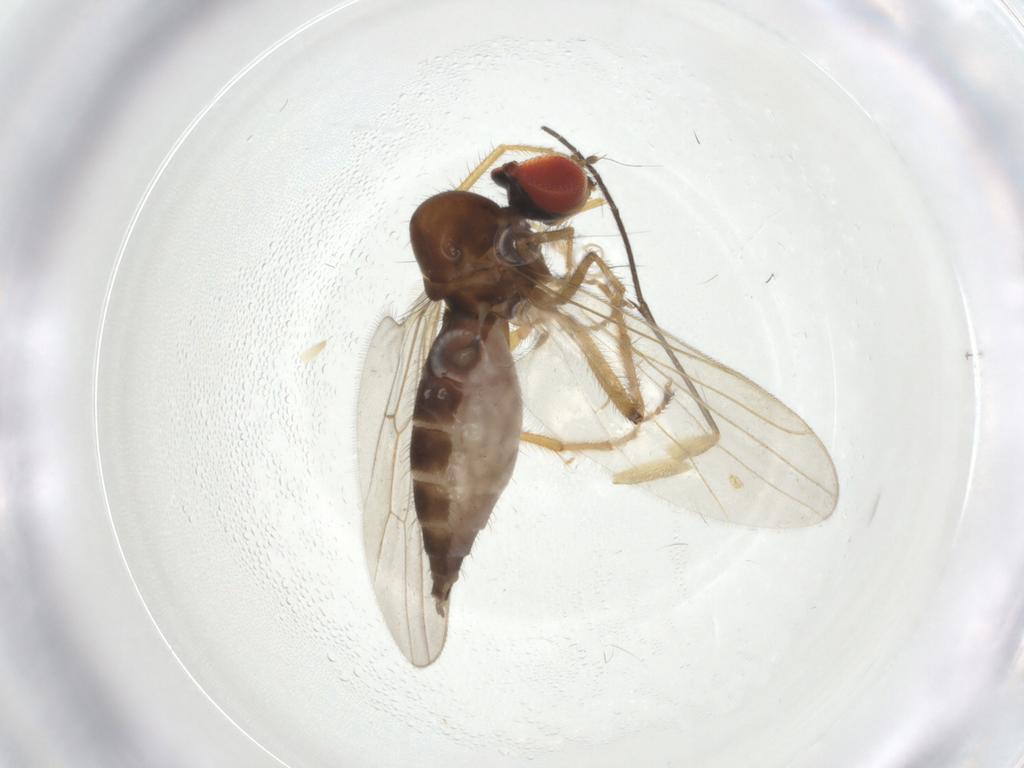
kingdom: Animalia
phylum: Arthropoda
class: Insecta
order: Diptera
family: Hybotidae
